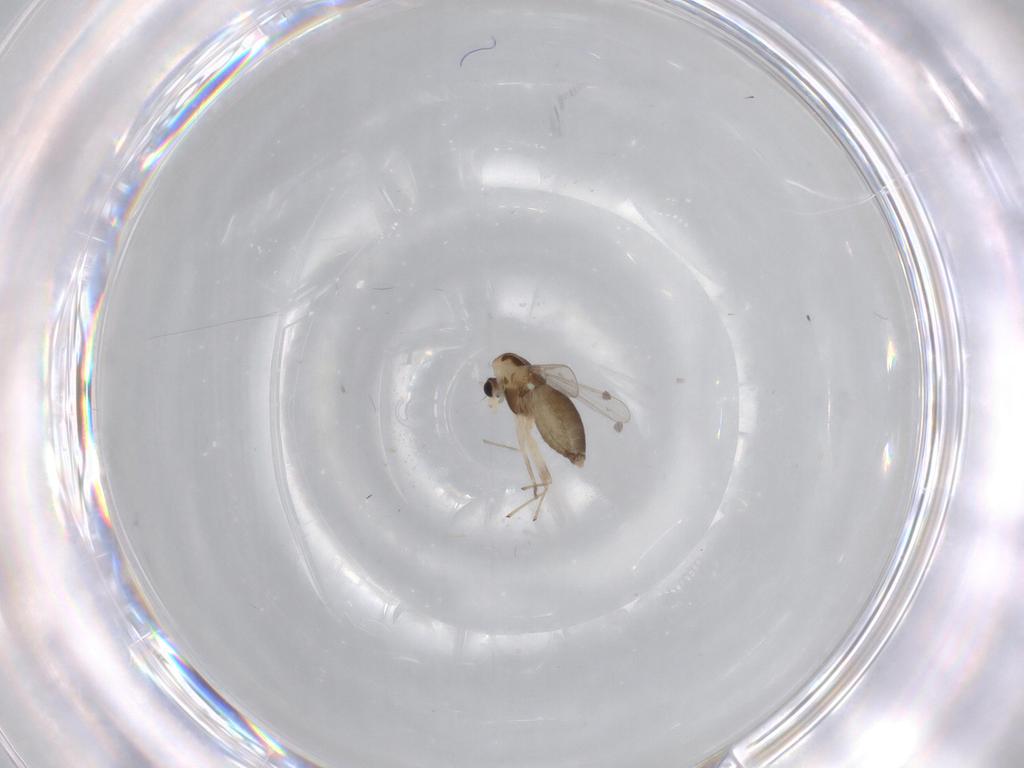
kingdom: Animalia
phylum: Arthropoda
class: Insecta
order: Diptera
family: Chironomidae
